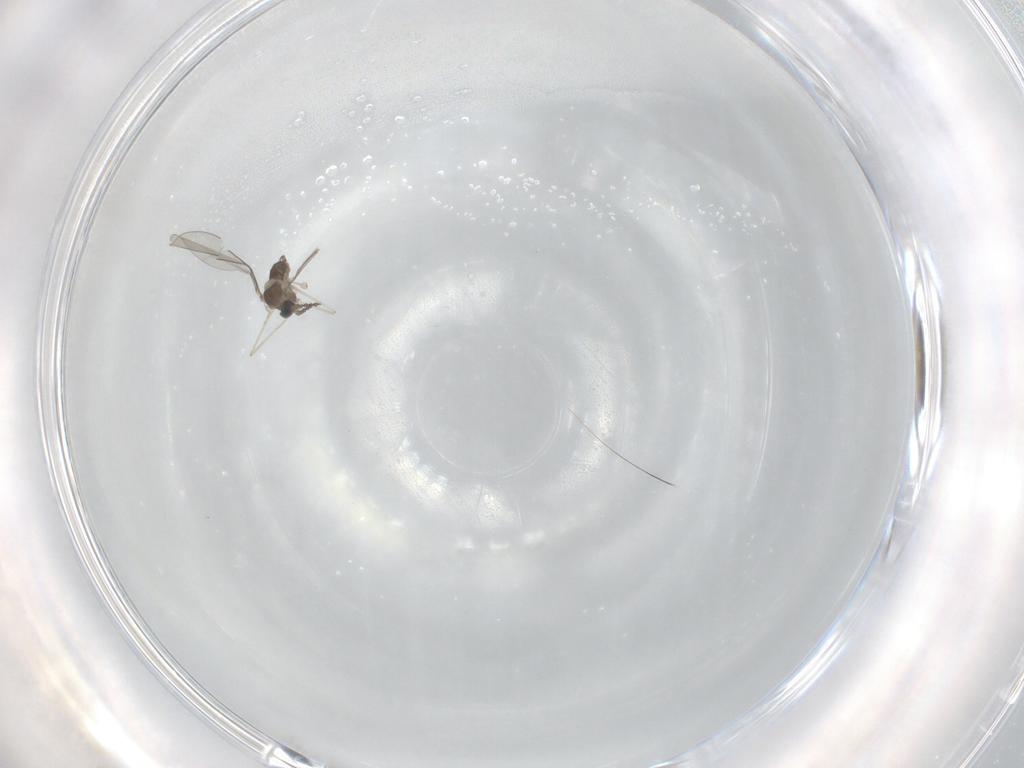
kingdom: Animalia
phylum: Arthropoda
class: Insecta
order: Diptera
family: Cecidomyiidae
